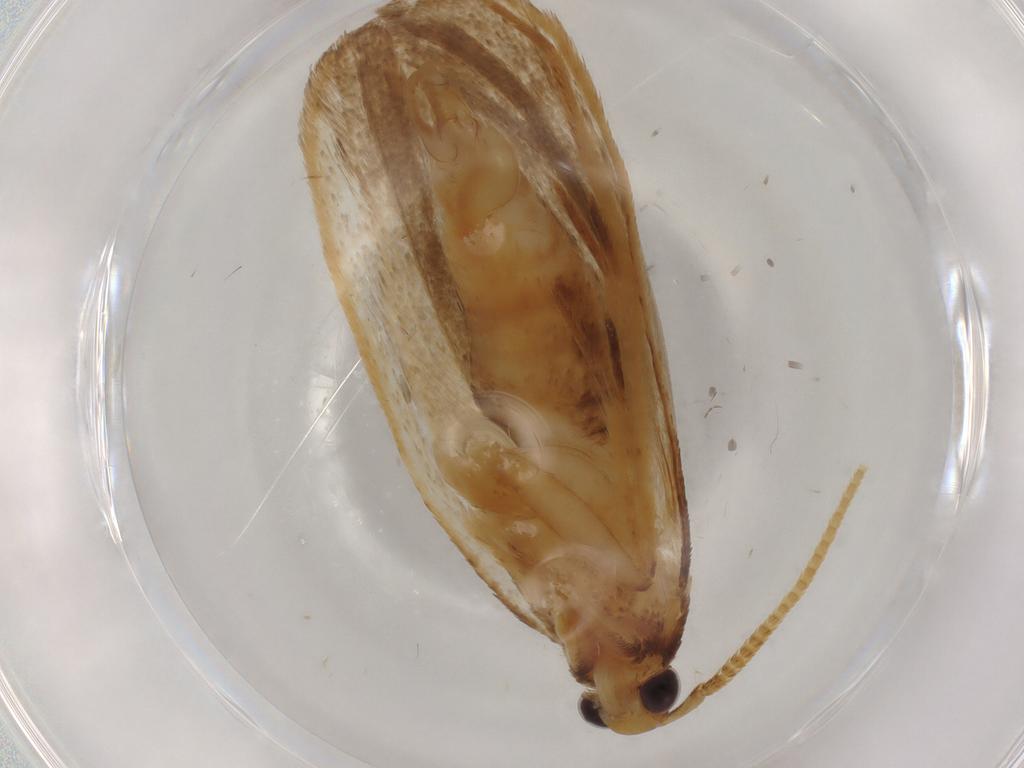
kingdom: Animalia
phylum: Arthropoda
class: Insecta
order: Lepidoptera
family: Lecithoceridae
